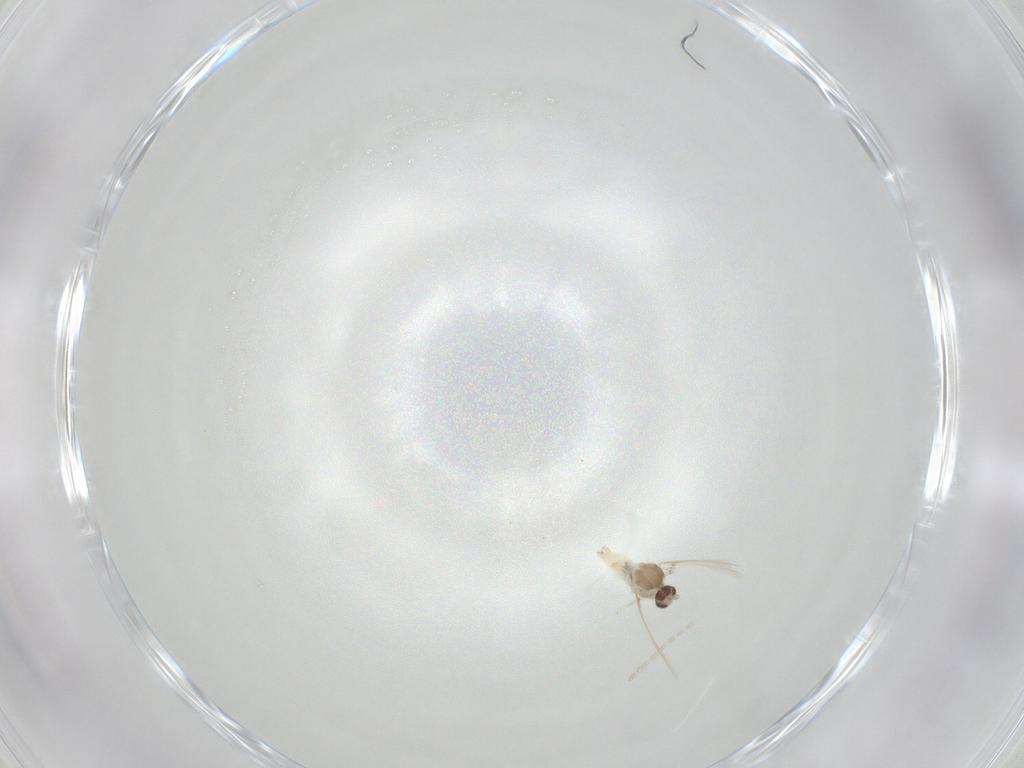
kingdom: Animalia
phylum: Arthropoda
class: Insecta
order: Diptera
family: Cecidomyiidae
